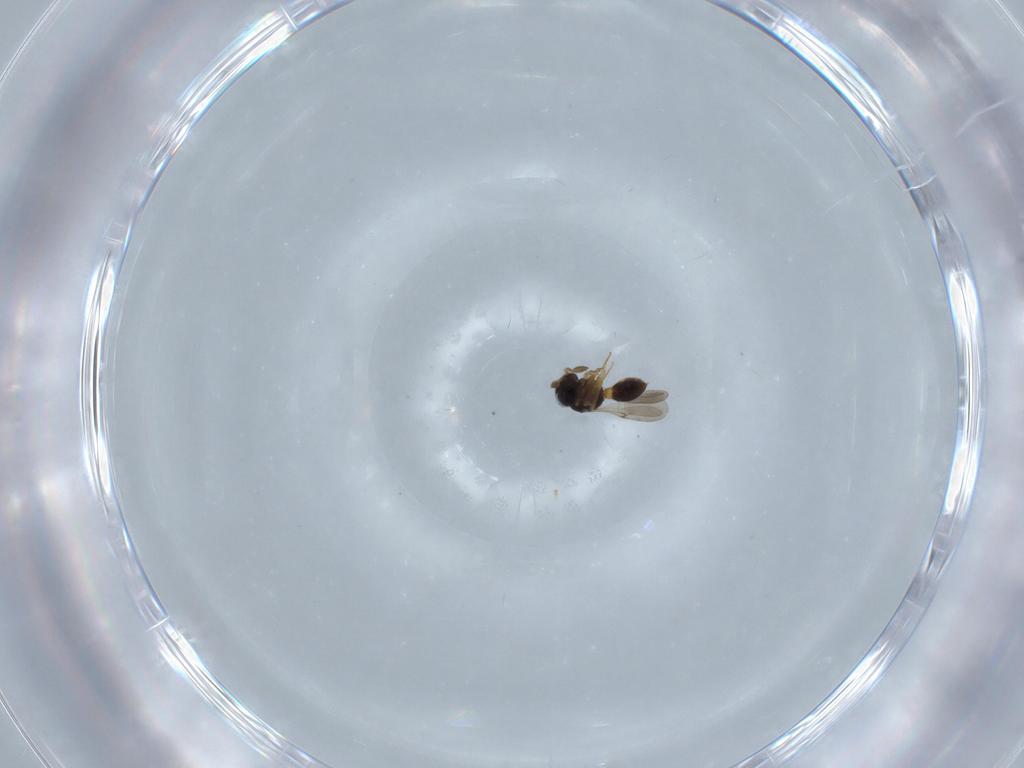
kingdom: Animalia
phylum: Arthropoda
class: Insecta
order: Hymenoptera
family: Scelionidae
